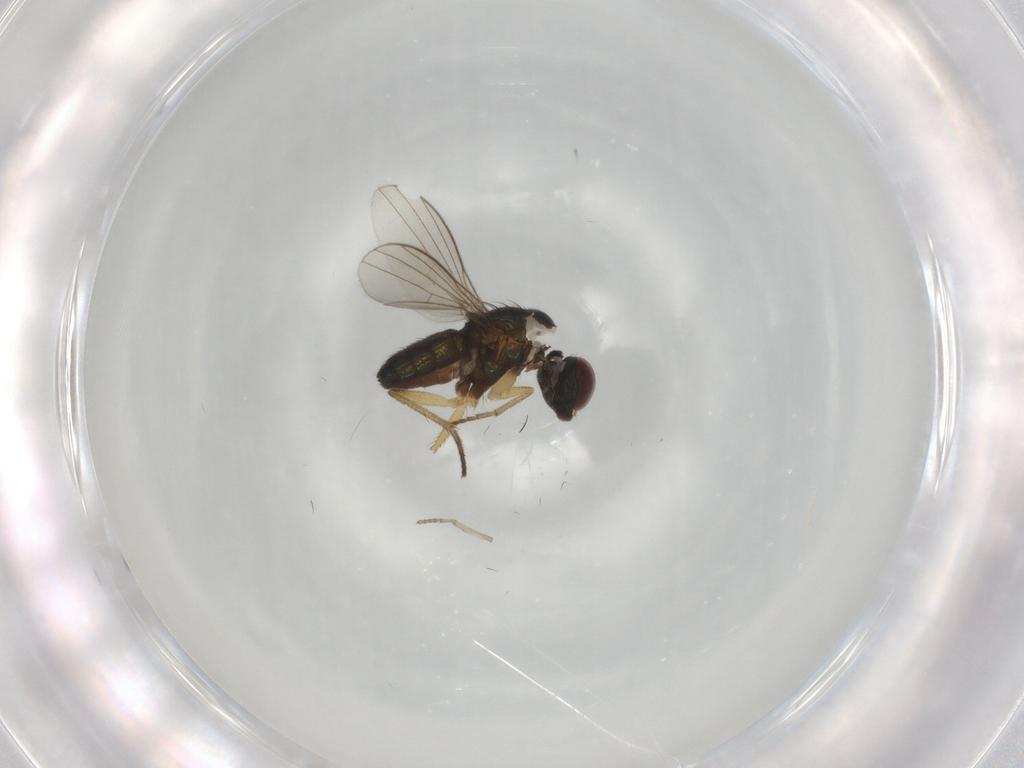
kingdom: Animalia
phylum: Arthropoda
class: Insecta
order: Diptera
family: Dolichopodidae
